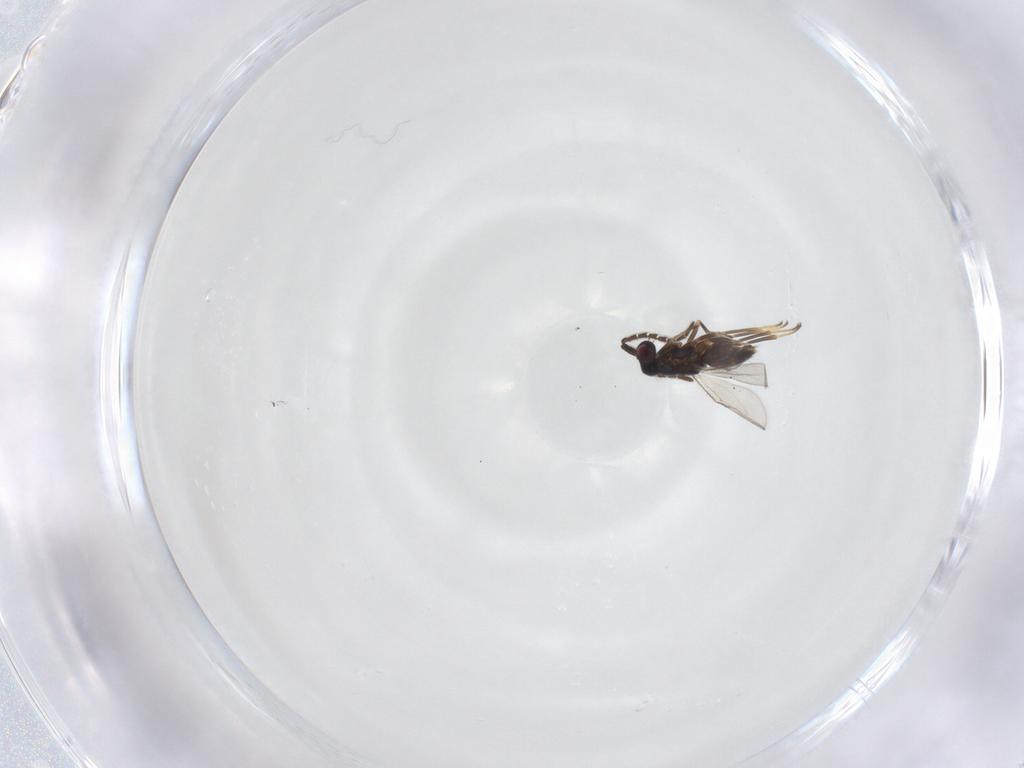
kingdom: Animalia
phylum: Arthropoda
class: Insecta
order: Hymenoptera
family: Encyrtidae
